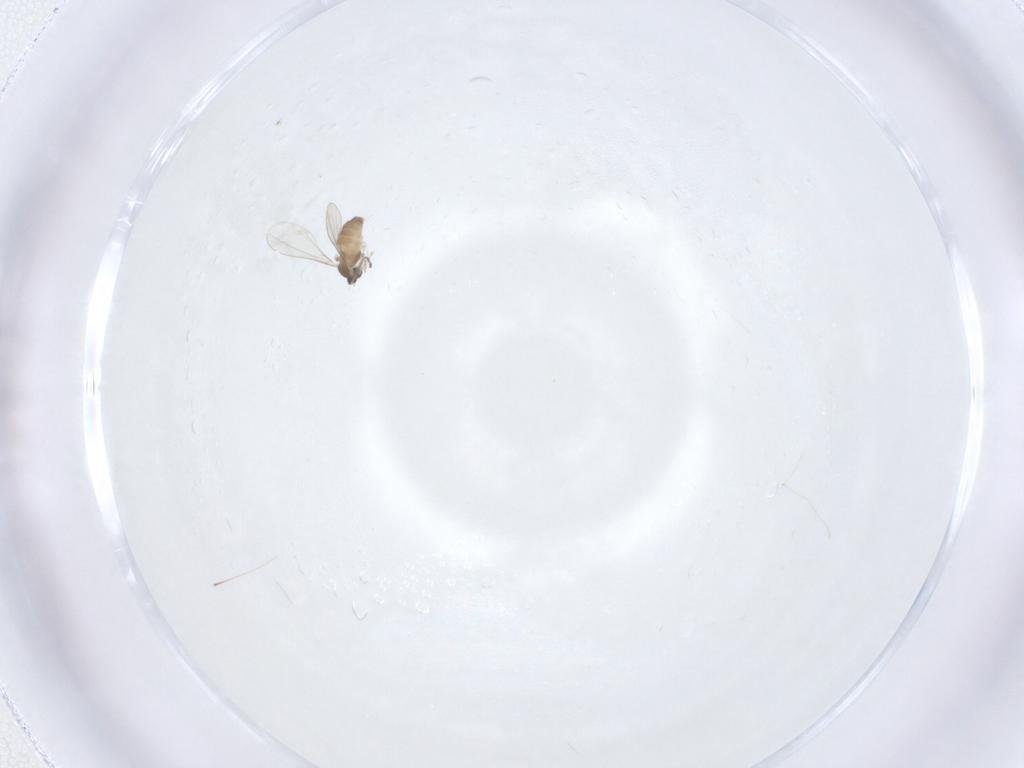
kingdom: Animalia
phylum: Arthropoda
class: Insecta
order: Diptera
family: Cecidomyiidae
